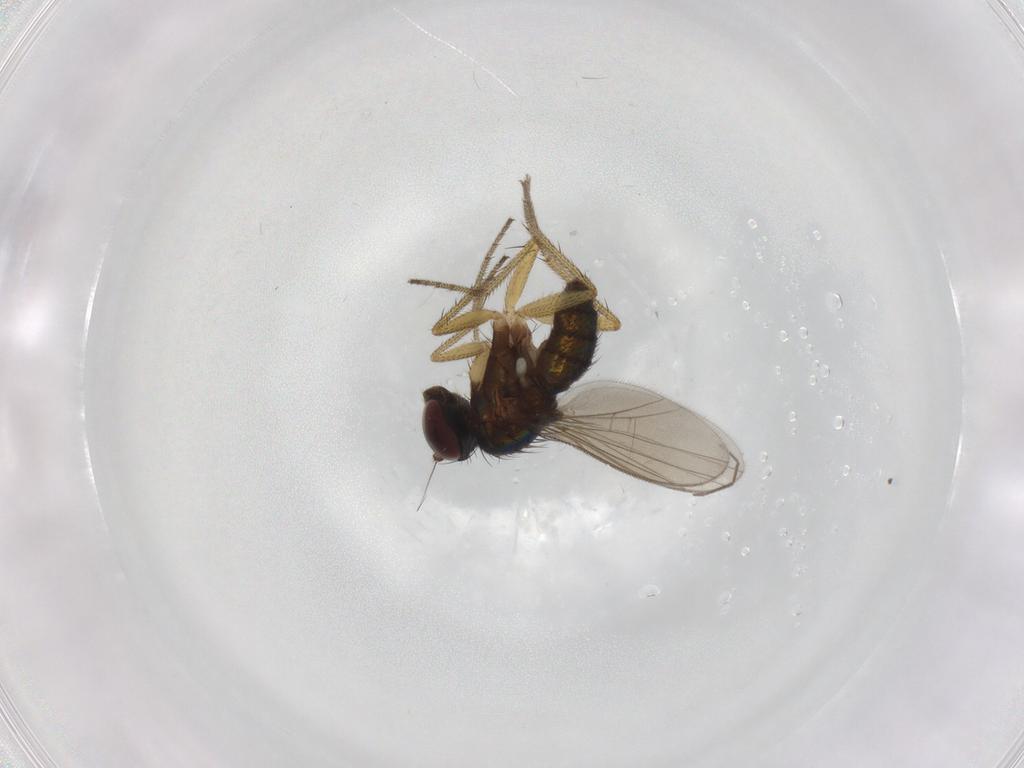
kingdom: Animalia
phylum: Arthropoda
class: Insecta
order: Diptera
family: Chironomidae
